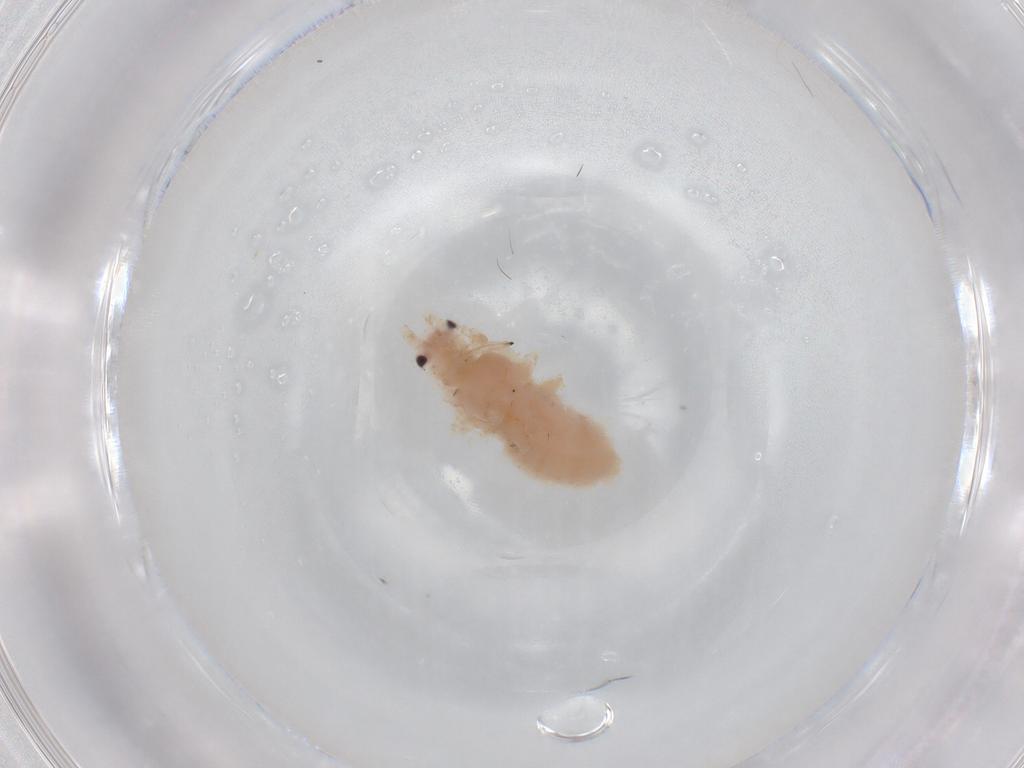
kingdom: Animalia
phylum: Arthropoda
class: Insecta
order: Hemiptera
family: Aphididae
